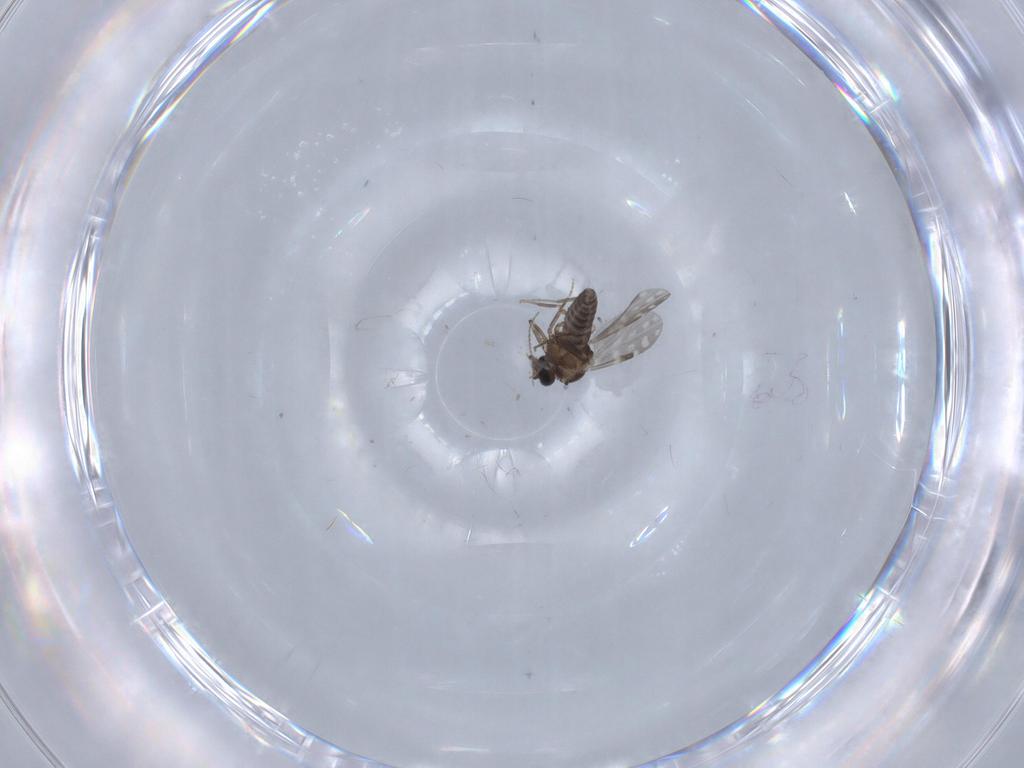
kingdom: Animalia
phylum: Arthropoda
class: Insecta
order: Diptera
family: Ceratopogonidae
